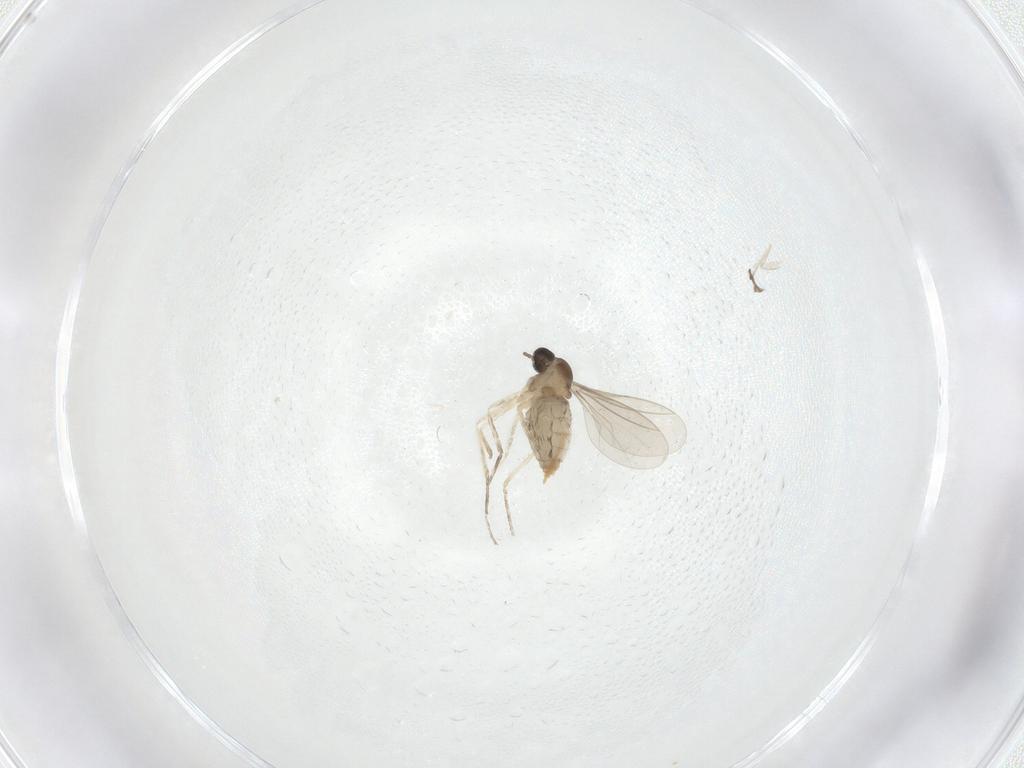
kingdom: Animalia
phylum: Arthropoda
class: Insecta
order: Diptera
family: Cecidomyiidae
